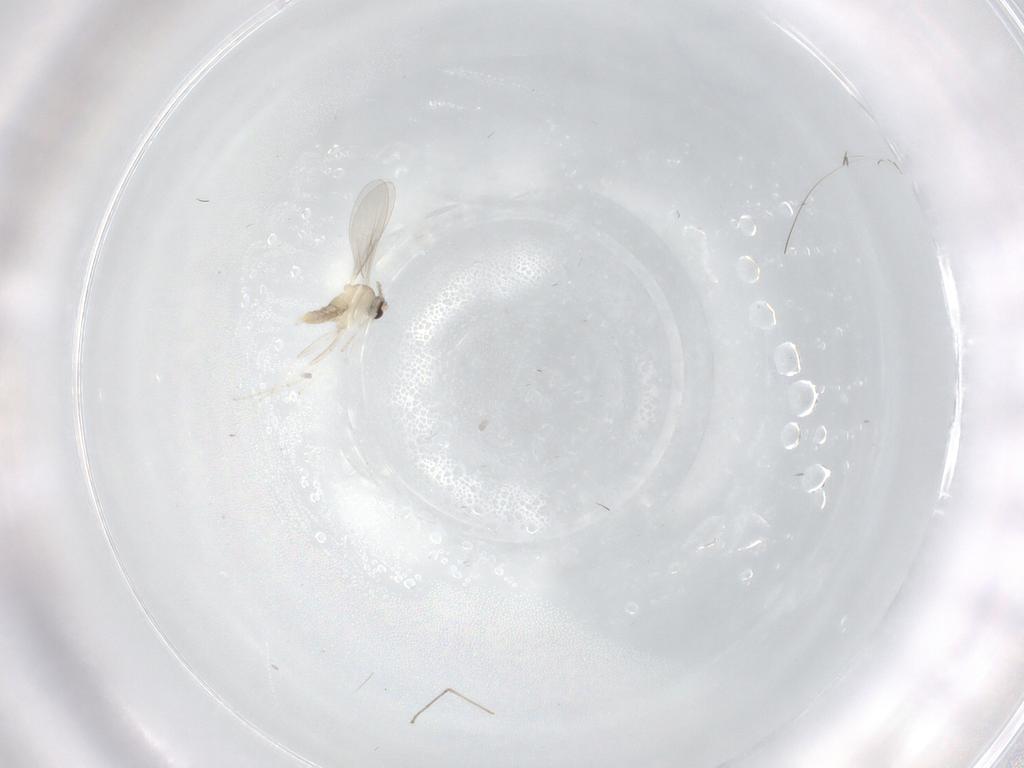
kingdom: Animalia
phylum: Arthropoda
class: Insecta
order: Diptera
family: Cecidomyiidae
